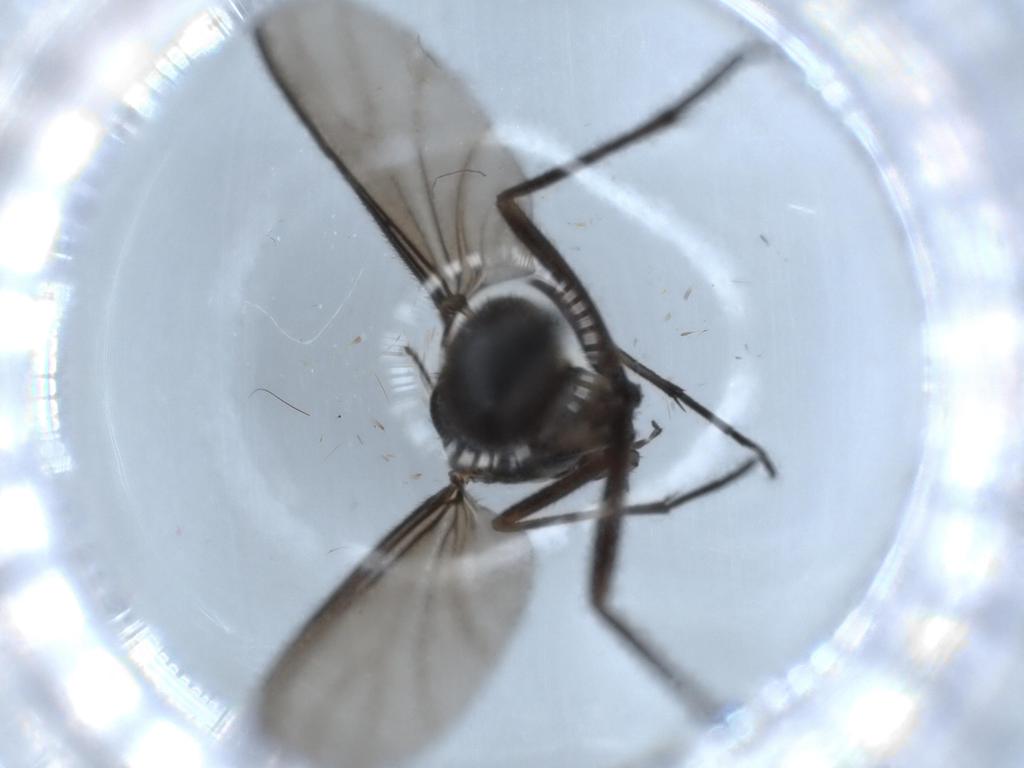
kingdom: Animalia
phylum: Arthropoda
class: Insecta
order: Diptera
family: Sciaridae
